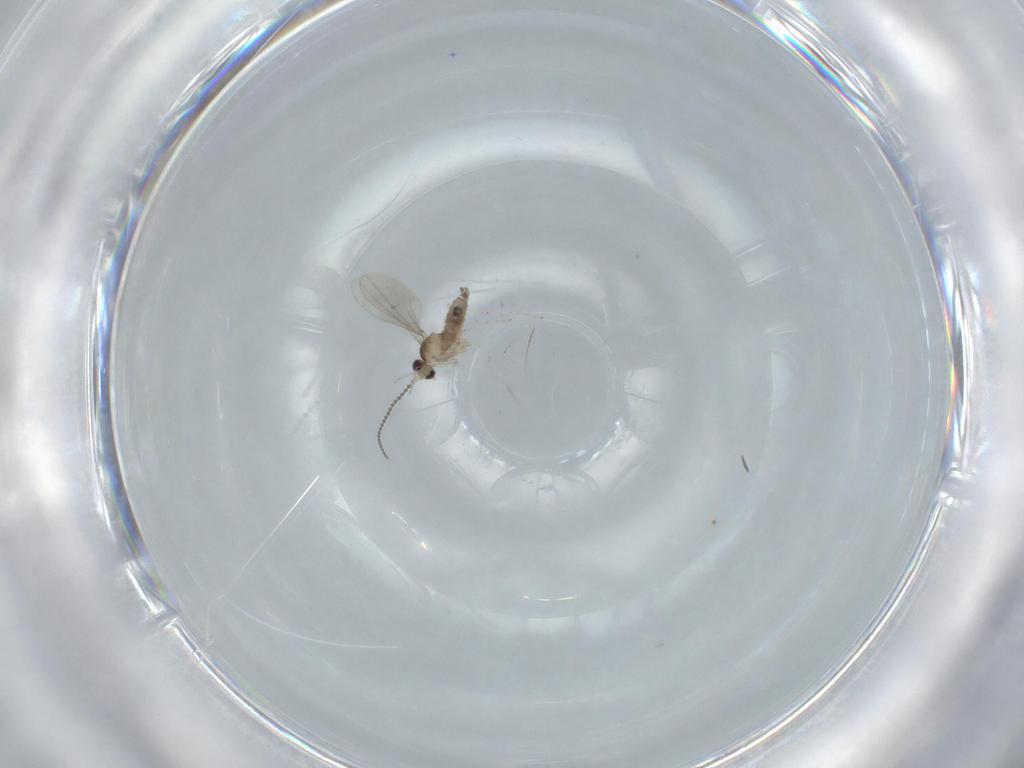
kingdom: Animalia
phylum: Arthropoda
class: Insecta
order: Diptera
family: Cecidomyiidae
